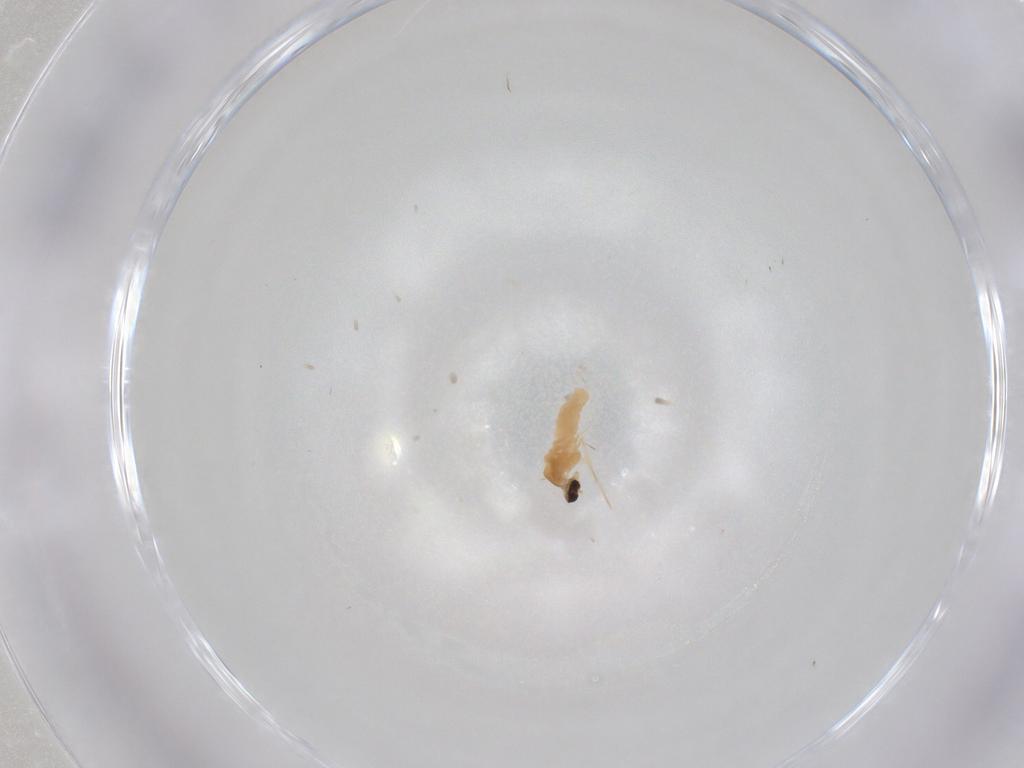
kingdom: Animalia
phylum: Arthropoda
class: Insecta
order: Diptera
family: Cecidomyiidae
